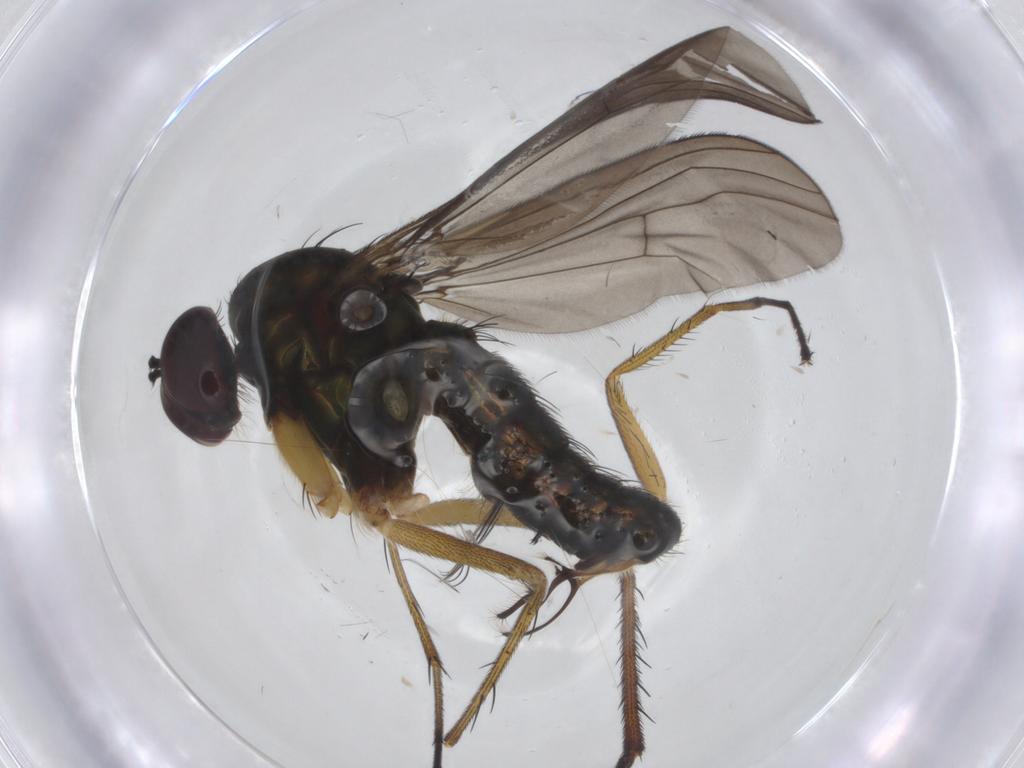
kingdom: Animalia
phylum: Arthropoda
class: Insecta
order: Diptera
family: Dolichopodidae
